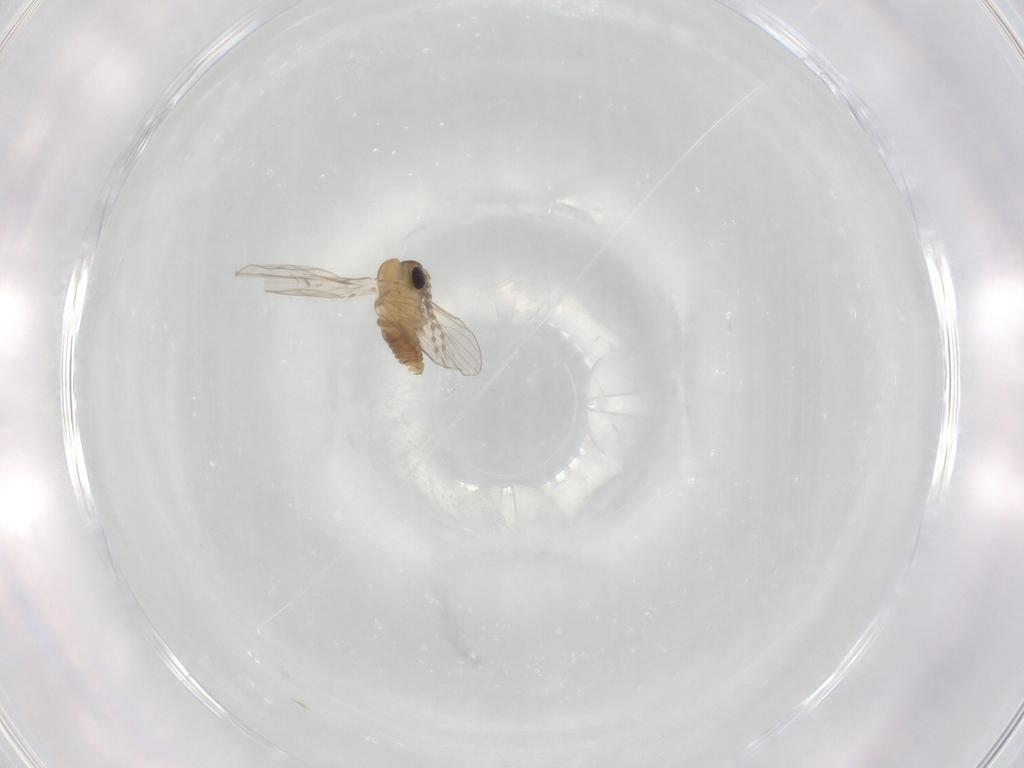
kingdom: Animalia
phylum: Arthropoda
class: Insecta
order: Diptera
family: Psychodidae
